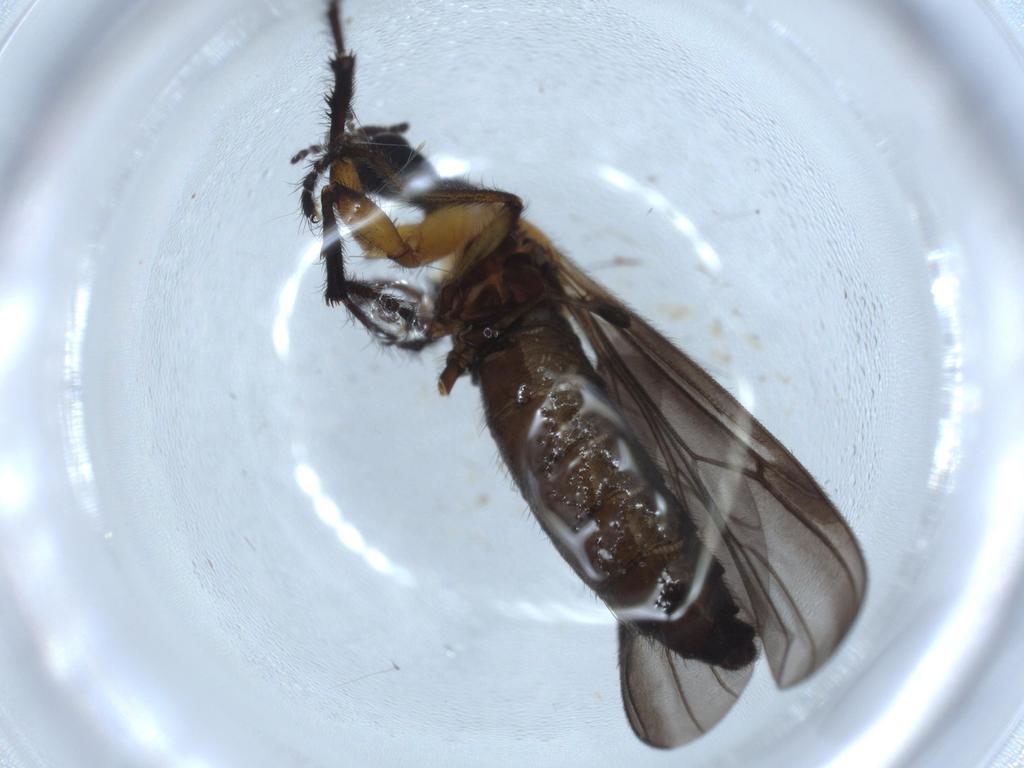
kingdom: Animalia
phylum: Arthropoda
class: Insecta
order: Diptera
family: Bibionidae
